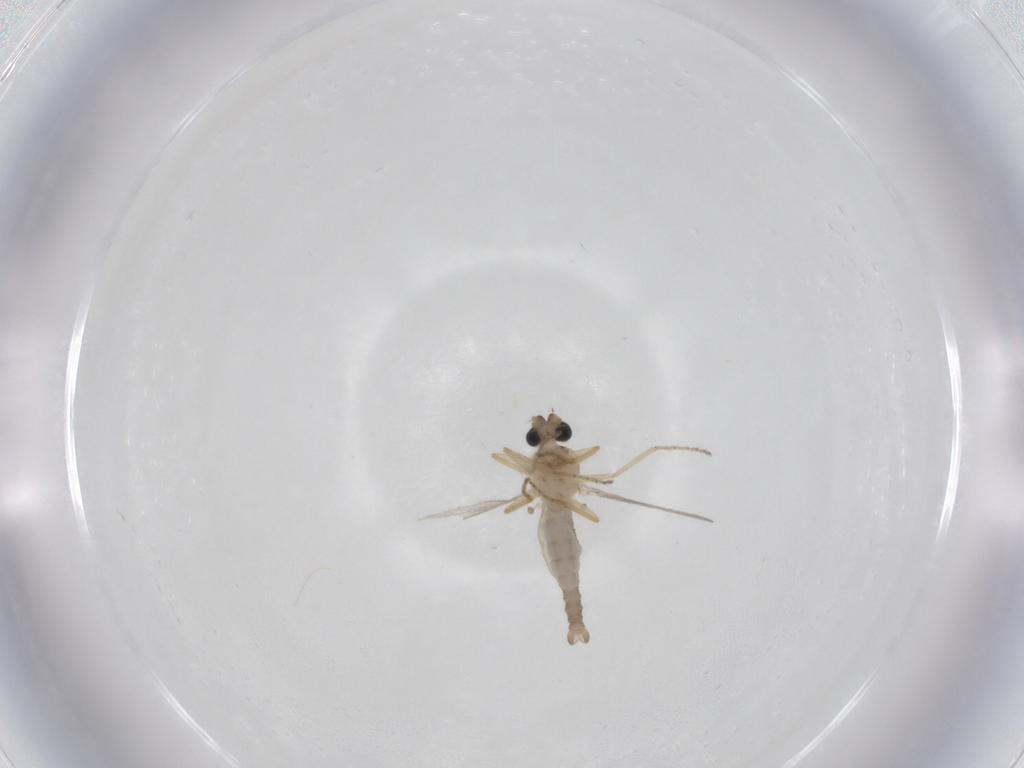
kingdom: Animalia
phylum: Arthropoda
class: Insecta
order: Diptera
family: Ceratopogonidae
